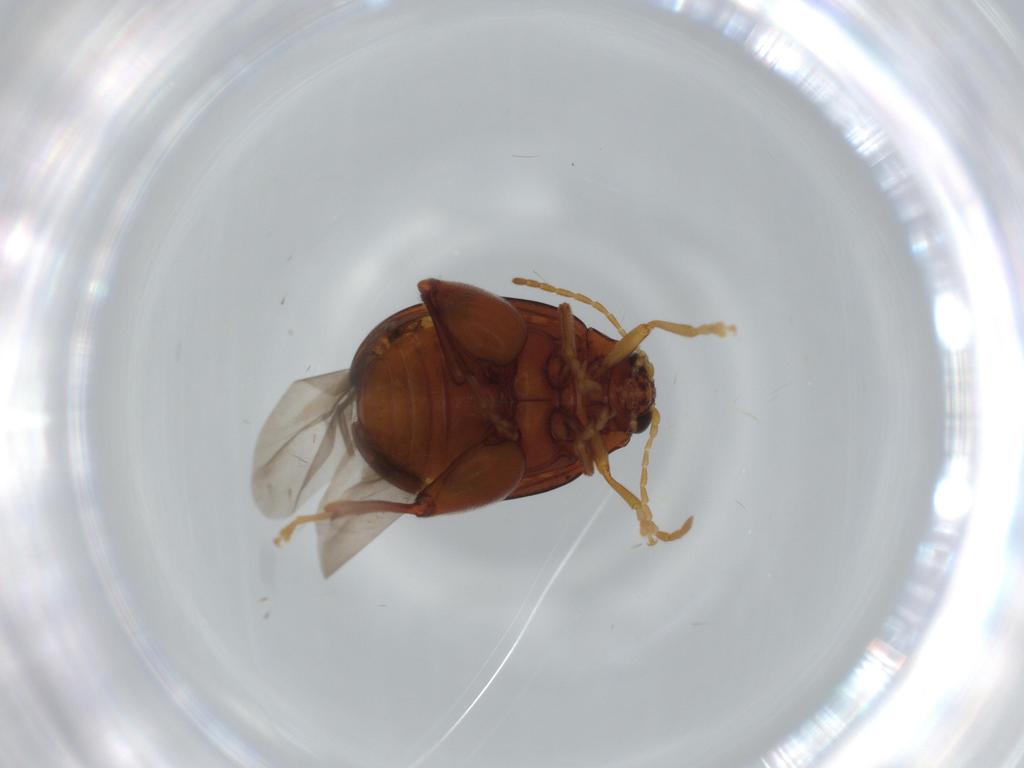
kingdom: Animalia
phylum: Arthropoda
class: Insecta
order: Coleoptera
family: Chrysomelidae
